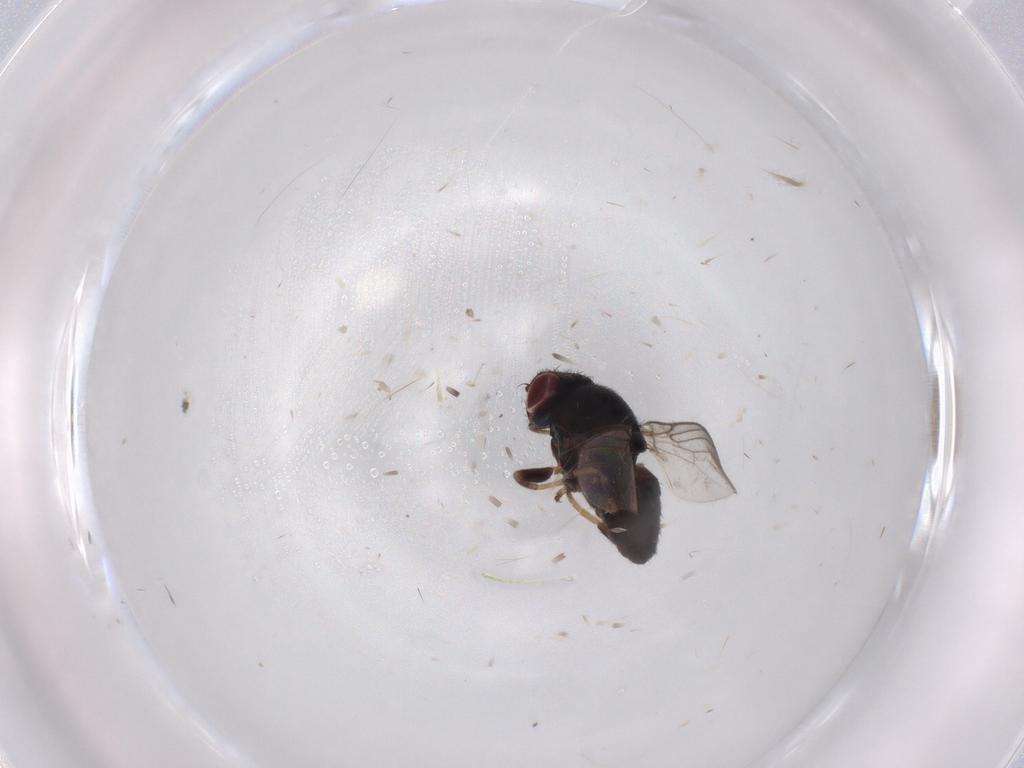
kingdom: Animalia
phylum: Arthropoda
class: Insecta
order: Diptera
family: Chloropidae
